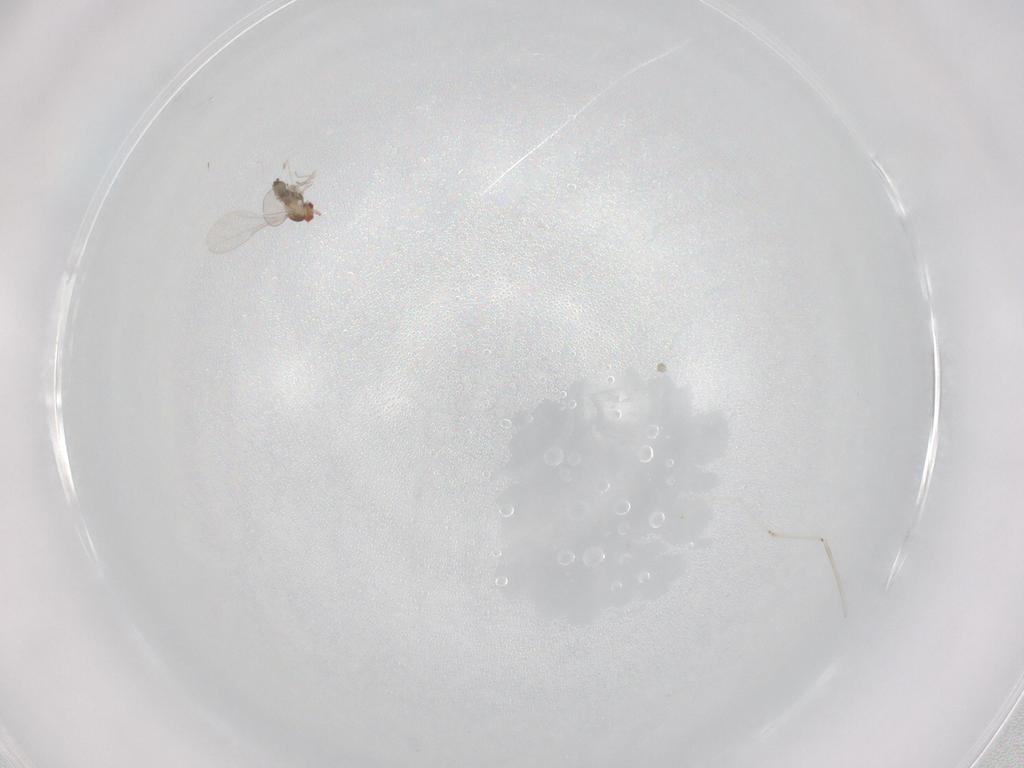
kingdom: Animalia
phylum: Arthropoda
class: Insecta
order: Diptera
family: Cecidomyiidae
